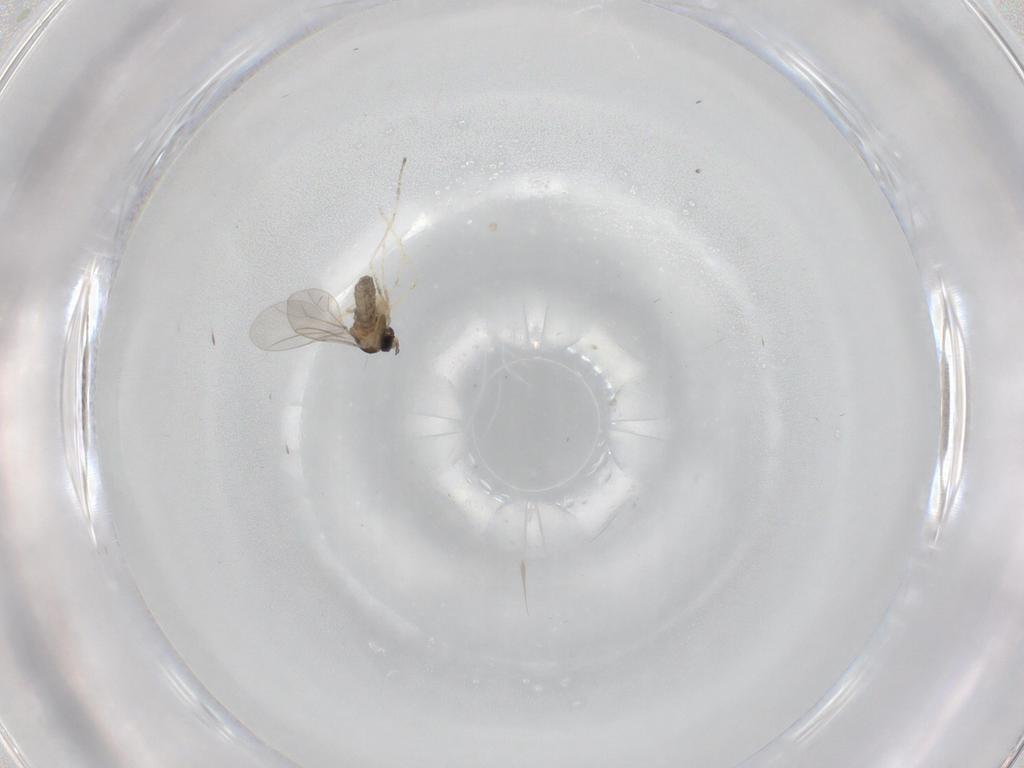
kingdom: Animalia
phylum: Arthropoda
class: Insecta
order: Diptera
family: Cecidomyiidae
